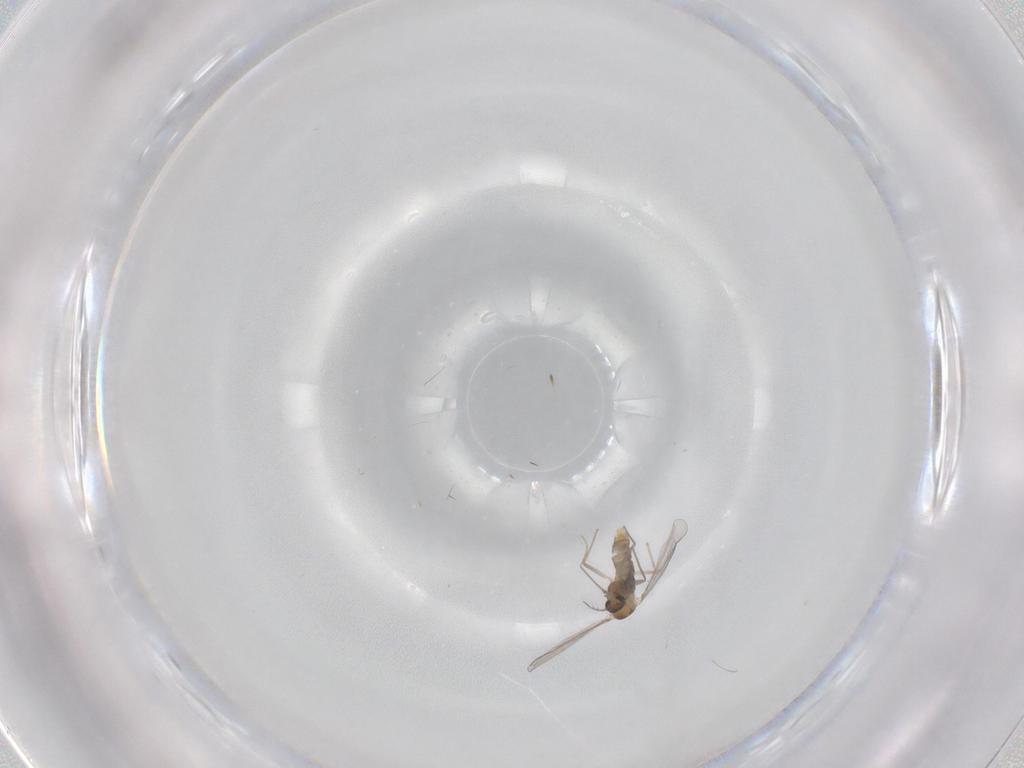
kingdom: Animalia
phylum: Arthropoda
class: Insecta
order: Diptera
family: Chironomidae
